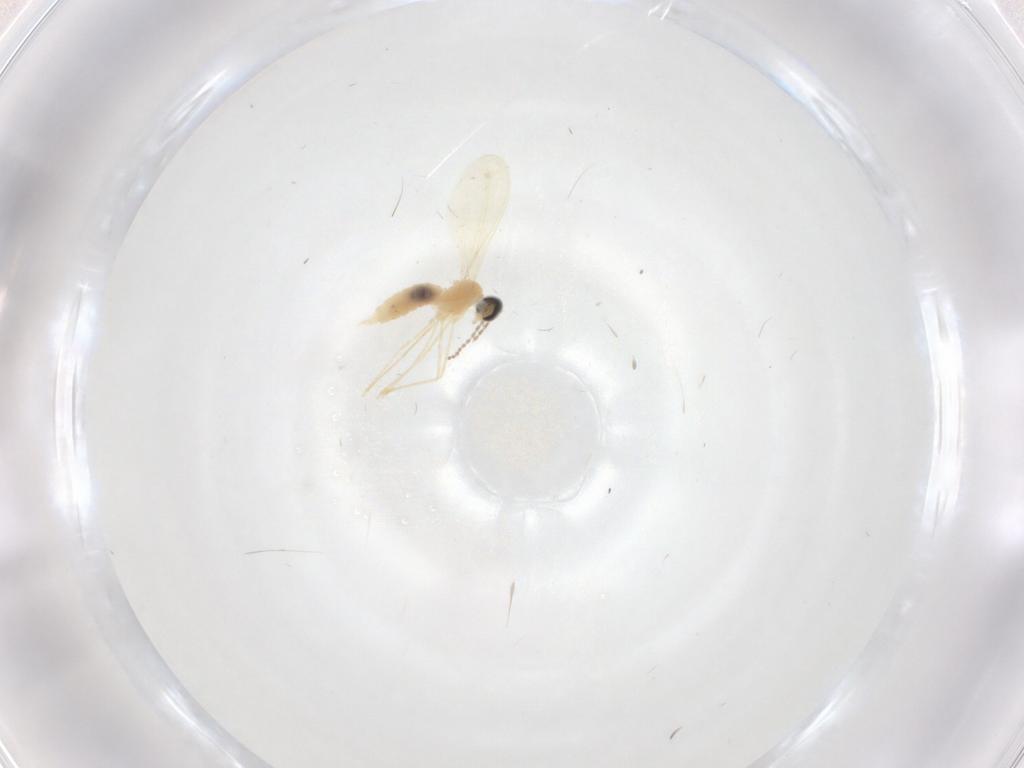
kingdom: Animalia
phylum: Arthropoda
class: Insecta
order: Diptera
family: Cecidomyiidae
